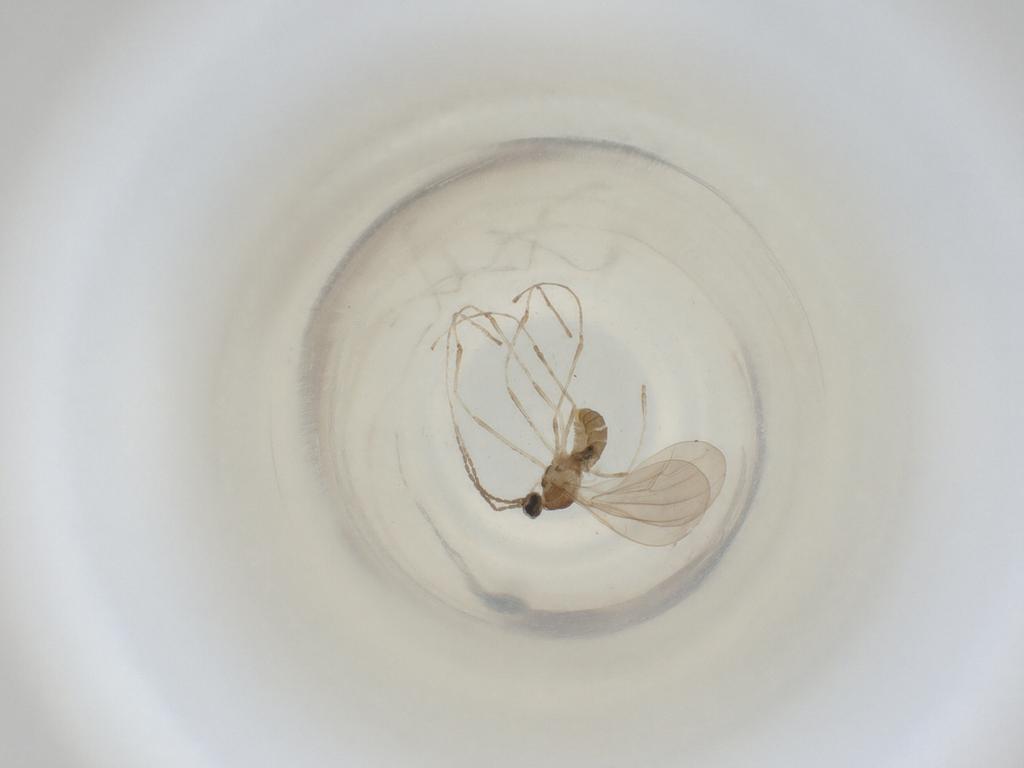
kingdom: Animalia
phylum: Arthropoda
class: Insecta
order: Diptera
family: Cecidomyiidae
